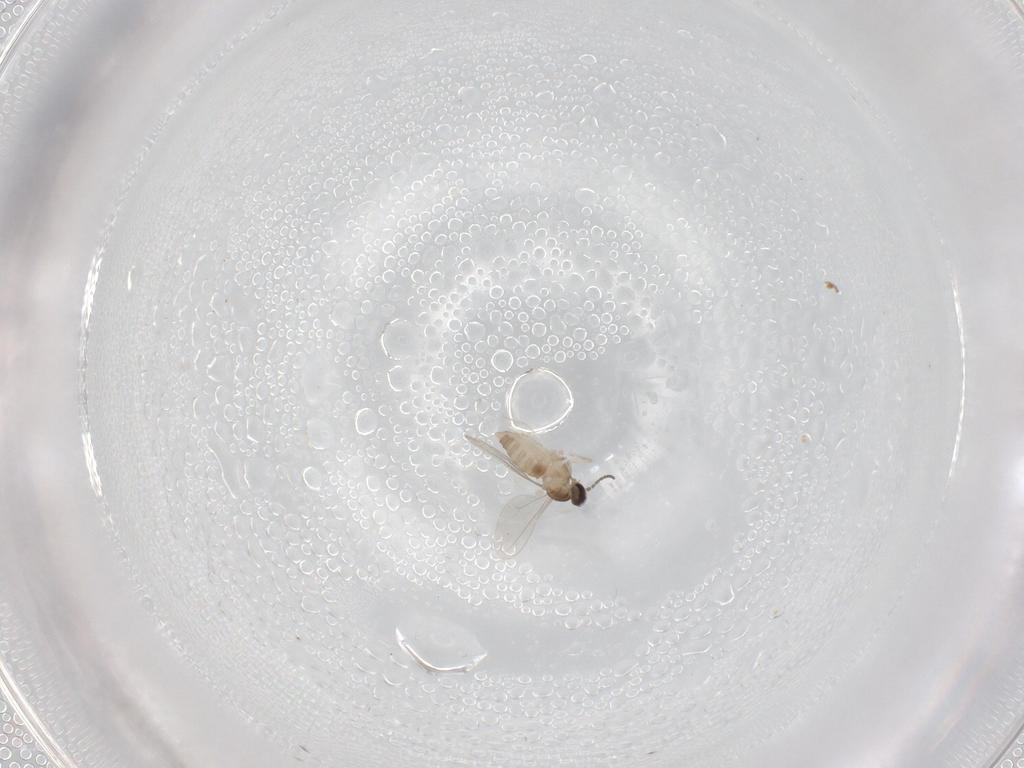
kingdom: Animalia
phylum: Arthropoda
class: Insecta
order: Diptera
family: Cecidomyiidae
